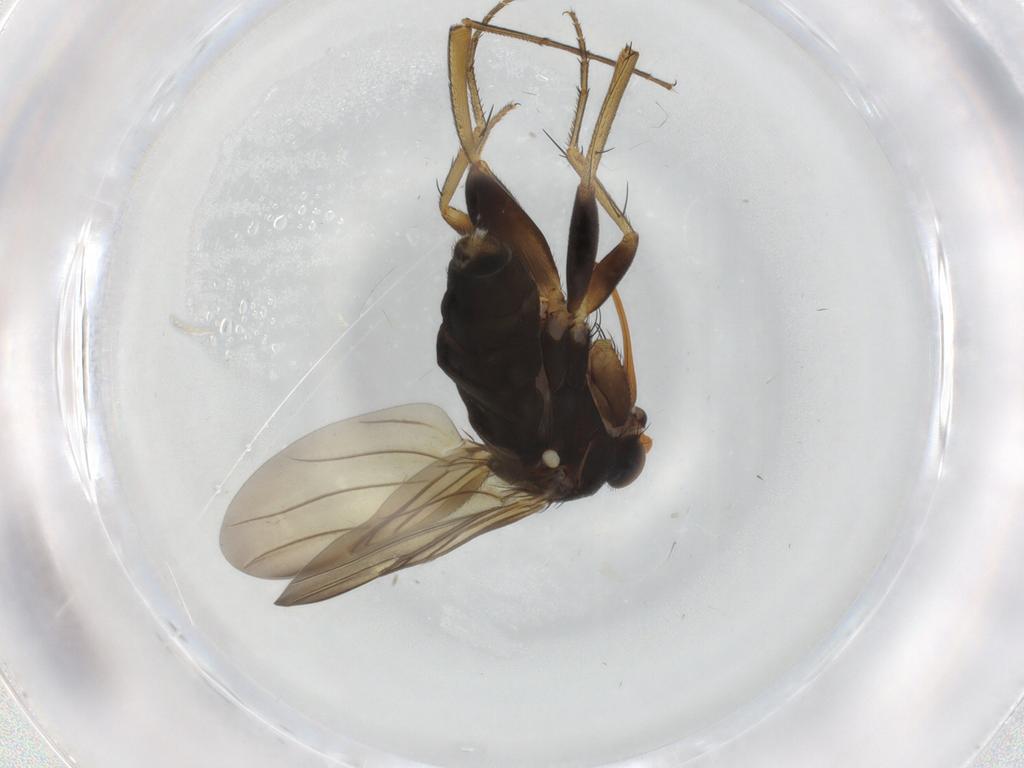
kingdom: Animalia
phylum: Arthropoda
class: Insecta
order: Diptera
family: Phoridae
